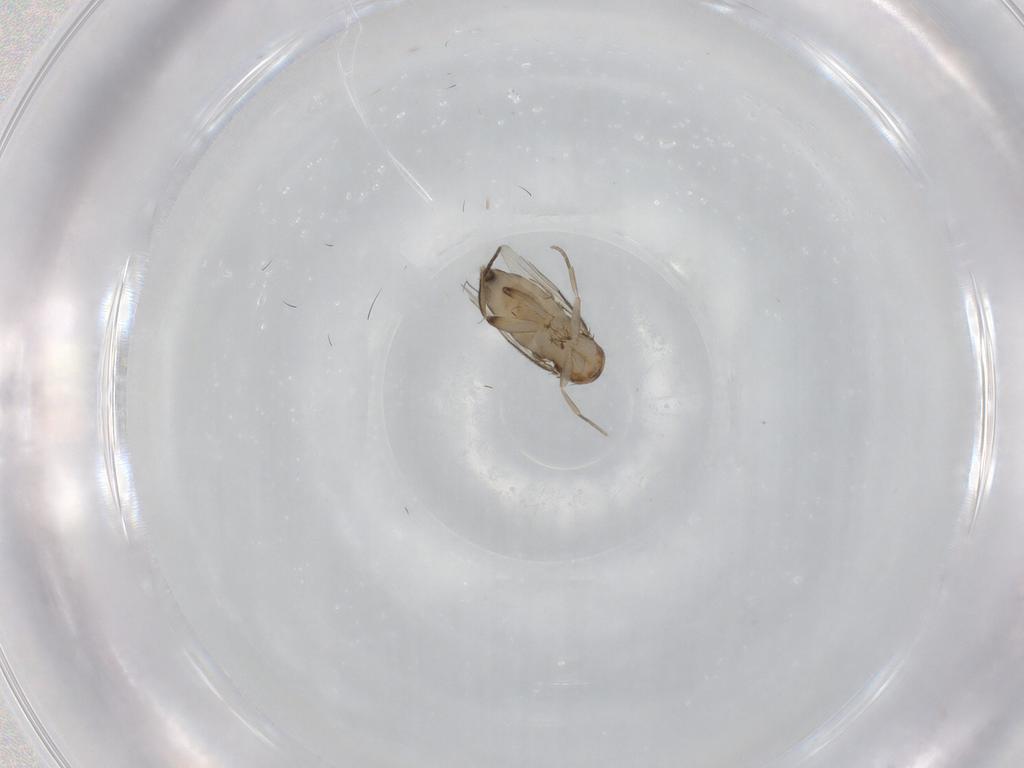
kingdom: Animalia
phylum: Arthropoda
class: Insecta
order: Diptera
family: Phoridae
